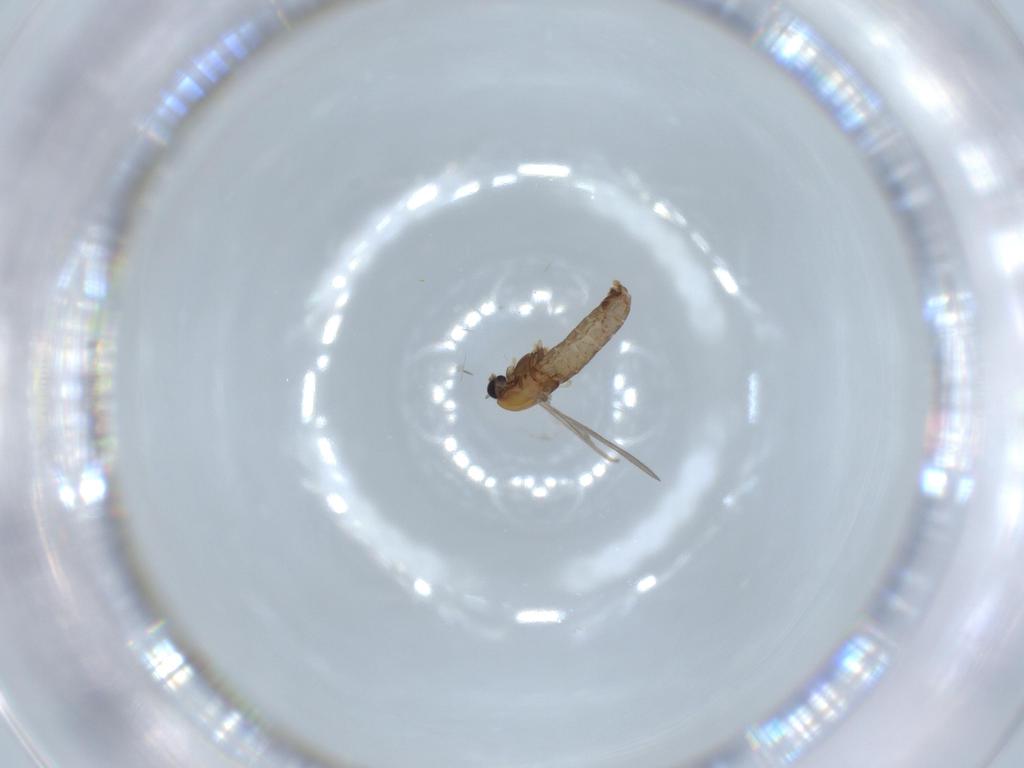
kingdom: Animalia
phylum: Arthropoda
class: Insecta
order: Diptera
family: Chironomidae
